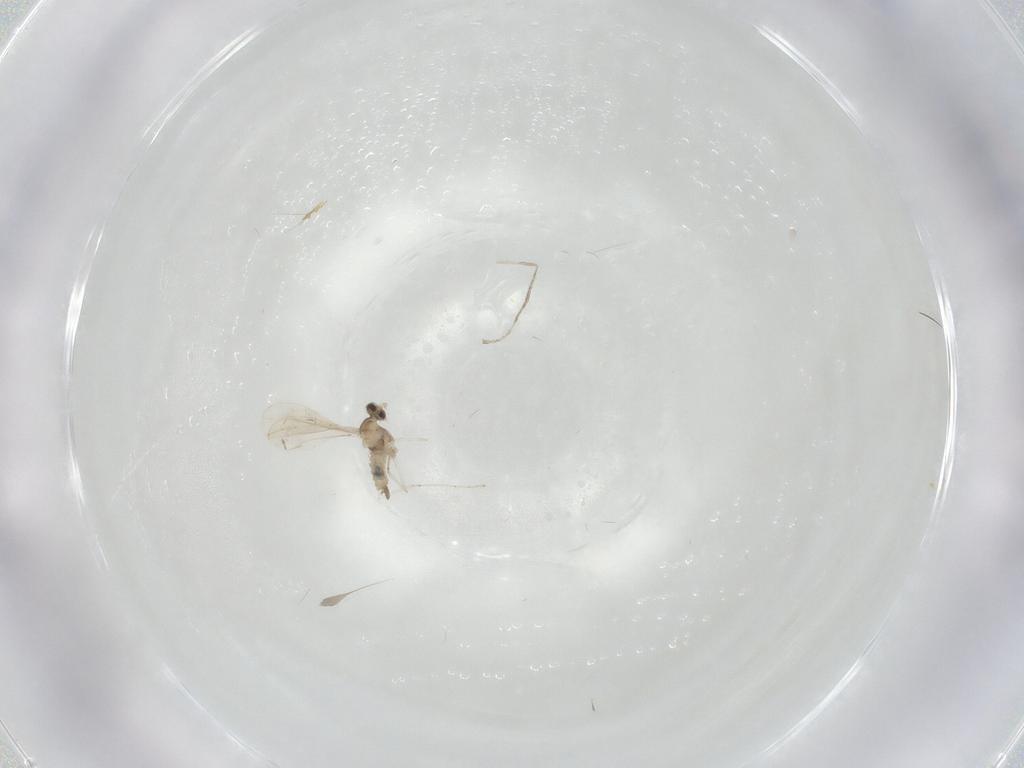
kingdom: Animalia
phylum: Arthropoda
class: Insecta
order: Diptera
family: Cecidomyiidae
